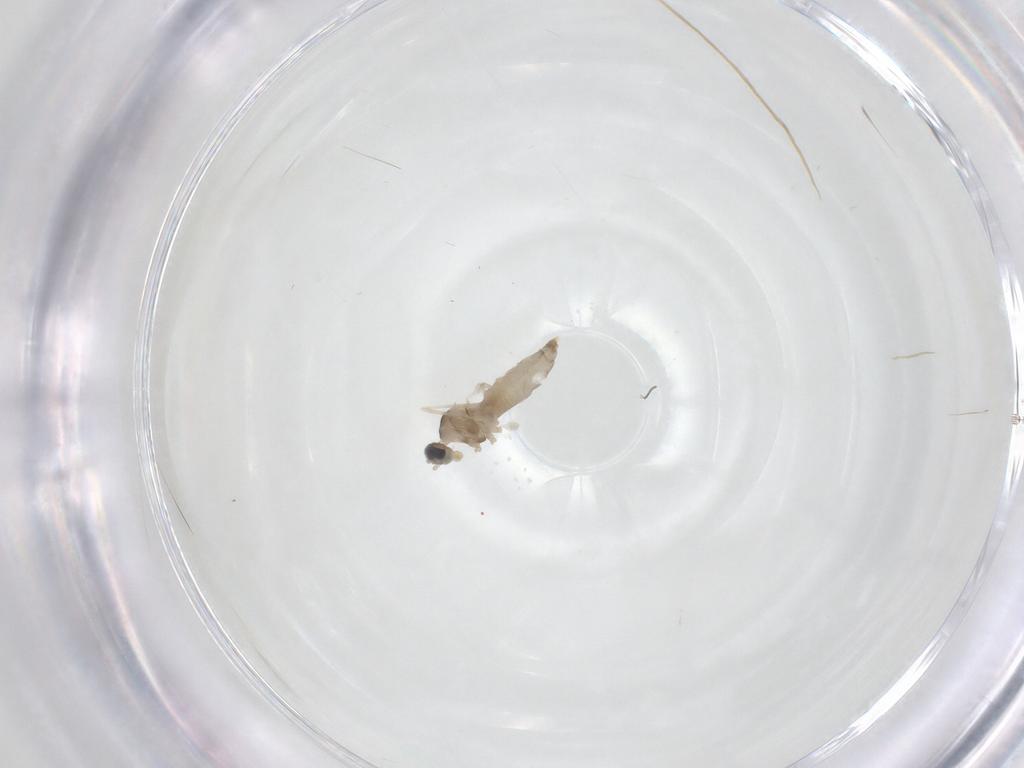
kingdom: Animalia
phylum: Arthropoda
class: Insecta
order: Diptera
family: Cecidomyiidae
